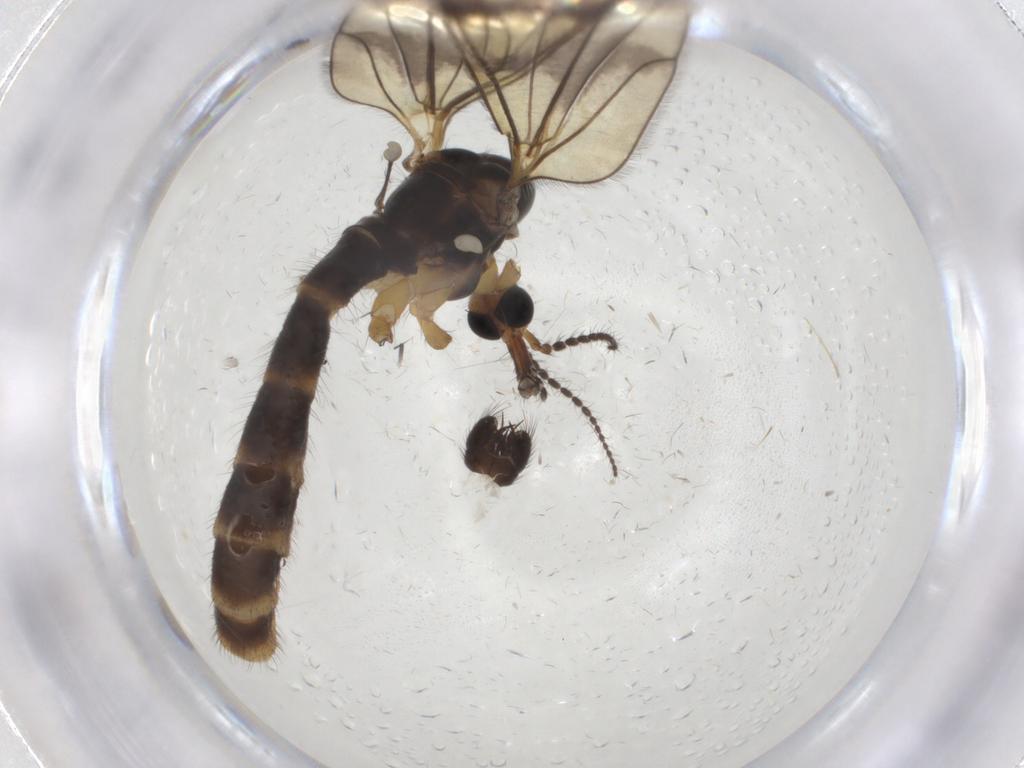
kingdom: Animalia
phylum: Arthropoda
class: Insecta
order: Diptera
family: Limoniidae
